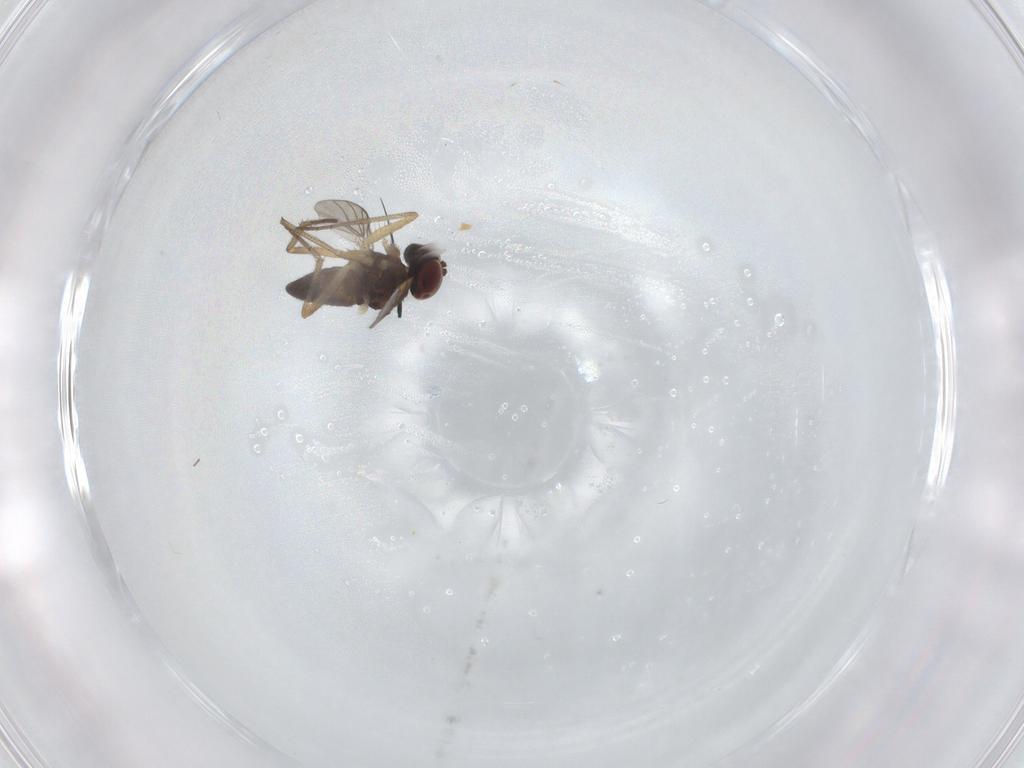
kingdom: Animalia
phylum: Arthropoda
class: Insecta
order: Diptera
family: Dolichopodidae
